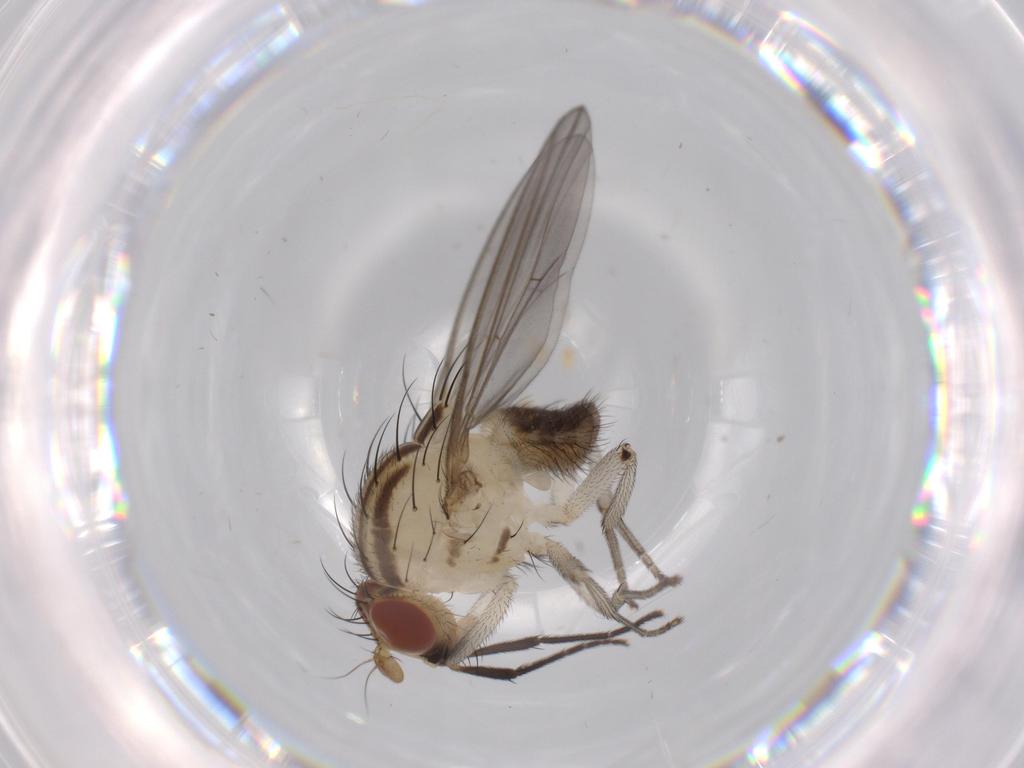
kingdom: Animalia
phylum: Arthropoda
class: Insecta
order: Diptera
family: Lauxaniidae
